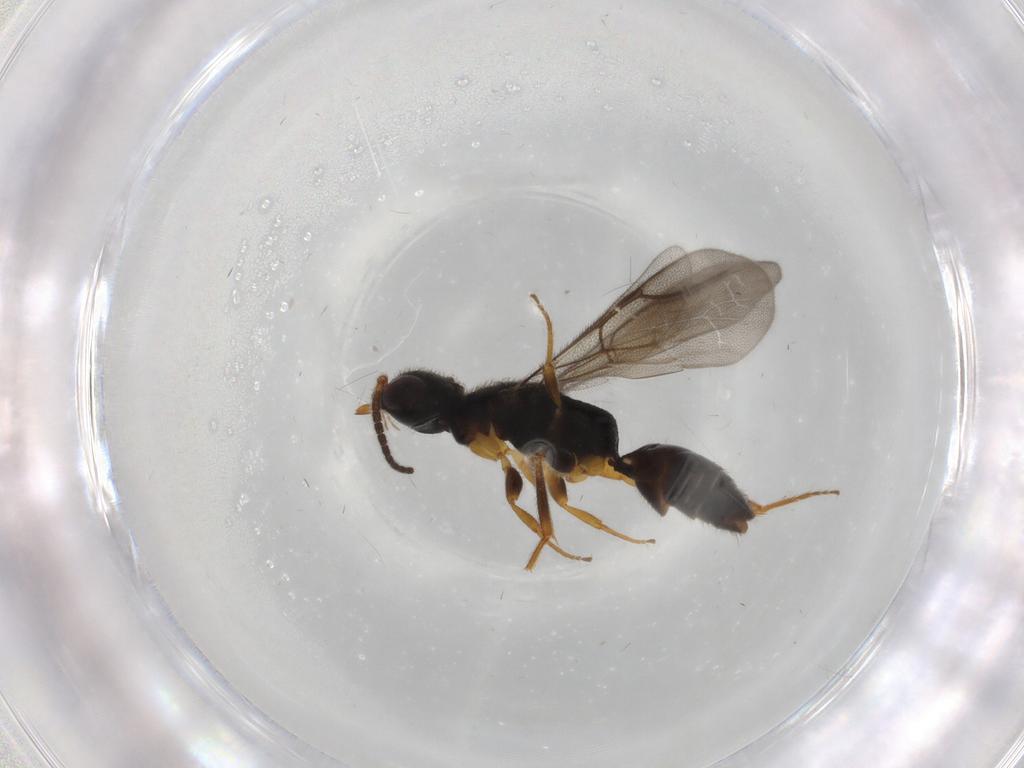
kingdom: Animalia
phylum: Arthropoda
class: Insecta
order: Hymenoptera
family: Bethylidae
